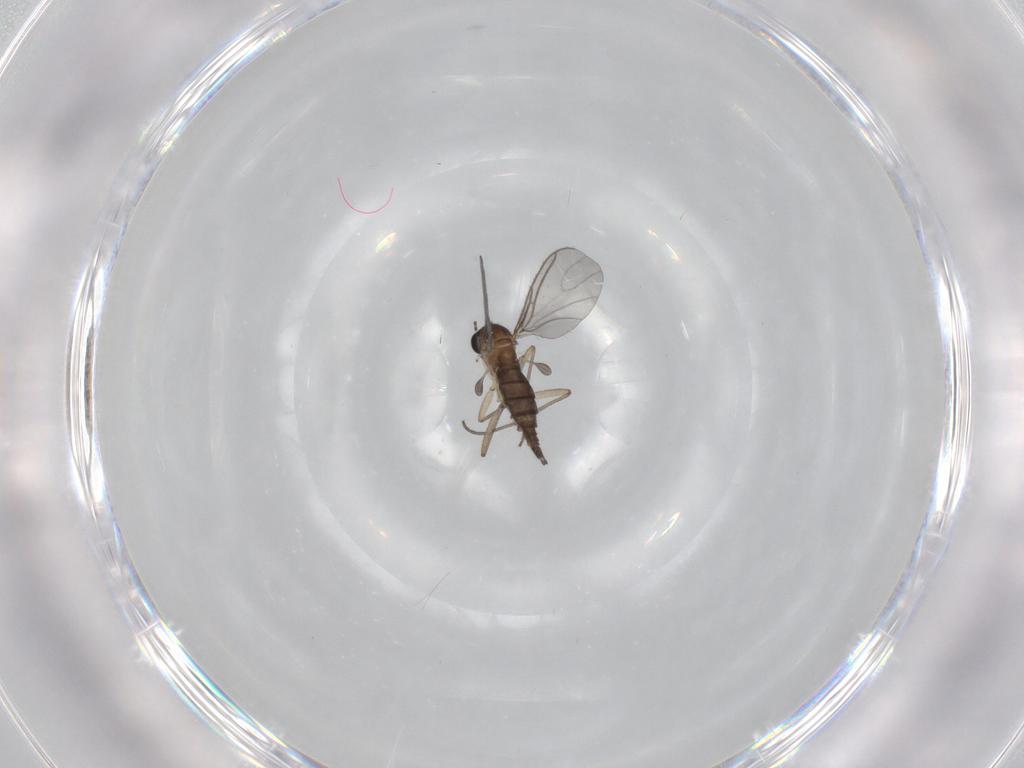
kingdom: Animalia
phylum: Arthropoda
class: Insecta
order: Diptera
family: Sciaridae
